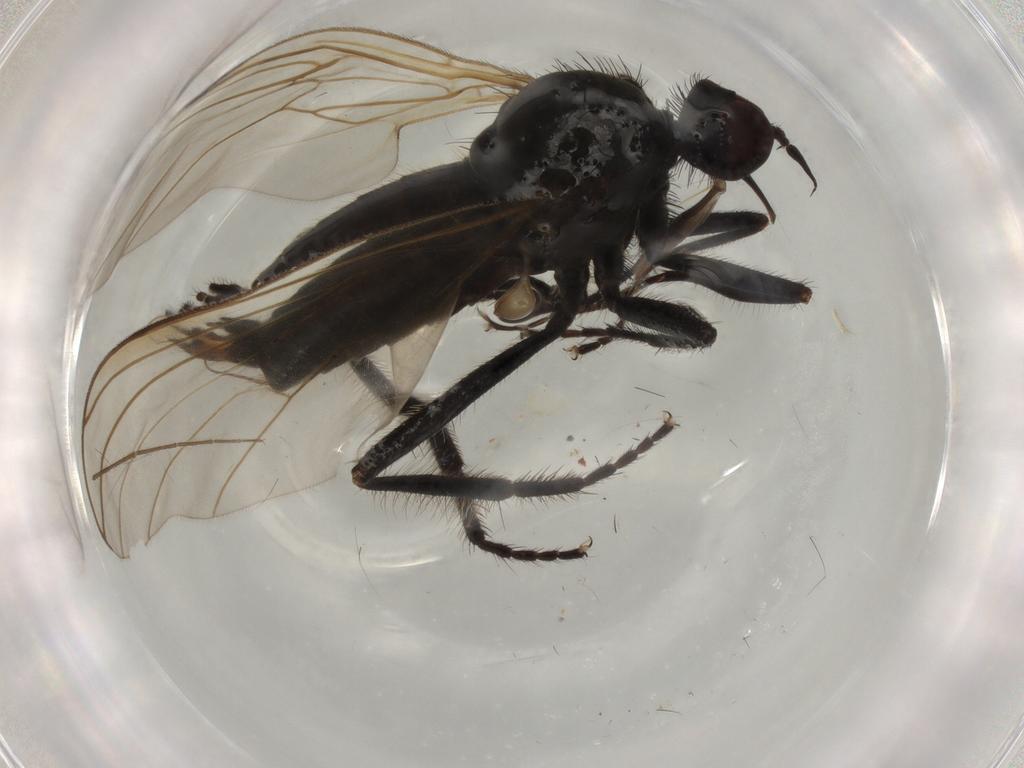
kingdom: Animalia
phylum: Arthropoda
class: Insecta
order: Diptera
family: Empididae
